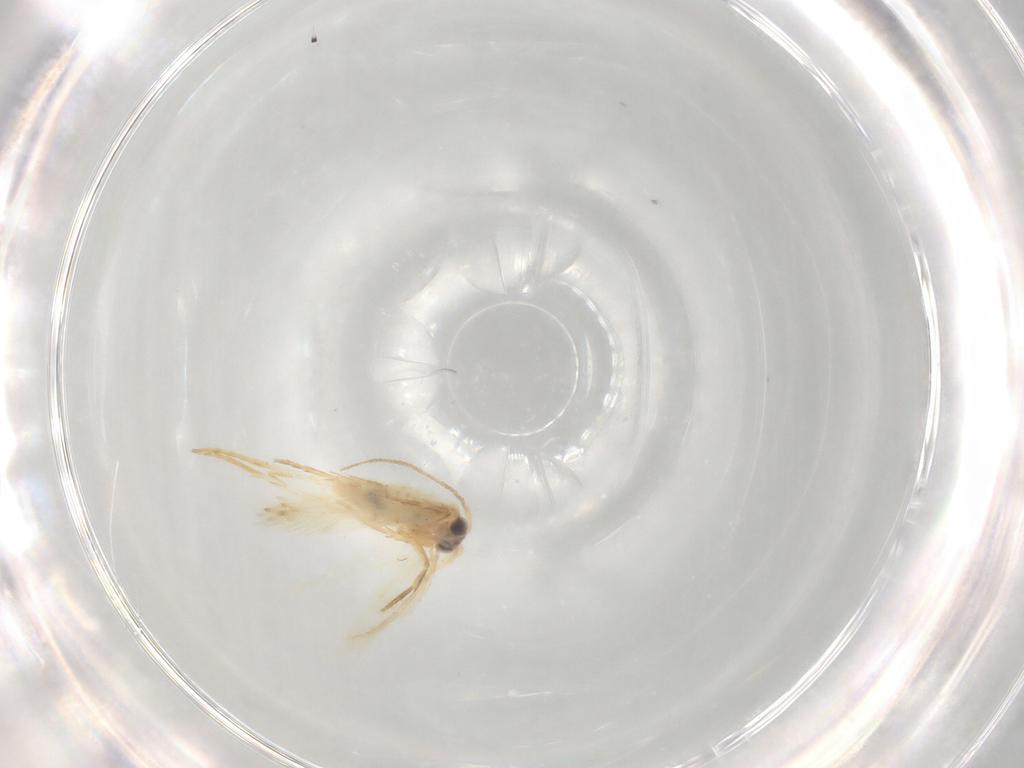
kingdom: Animalia
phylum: Arthropoda
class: Insecta
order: Lepidoptera
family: Nepticulidae
